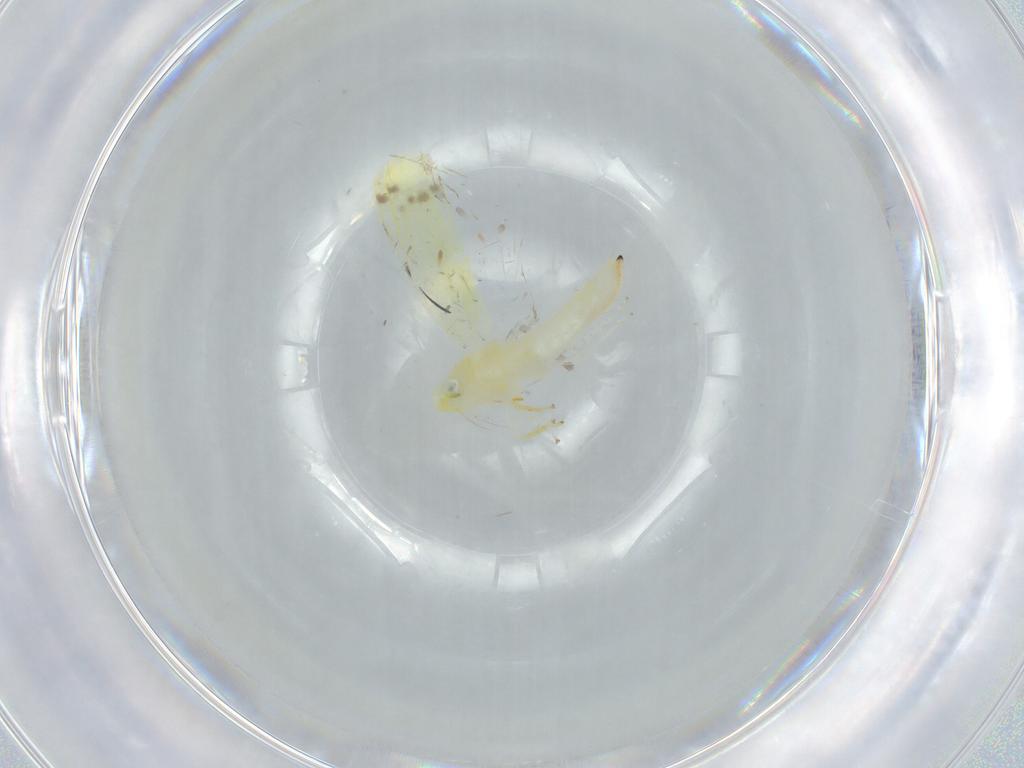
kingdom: Animalia
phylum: Arthropoda
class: Insecta
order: Hemiptera
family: Cicadellidae
